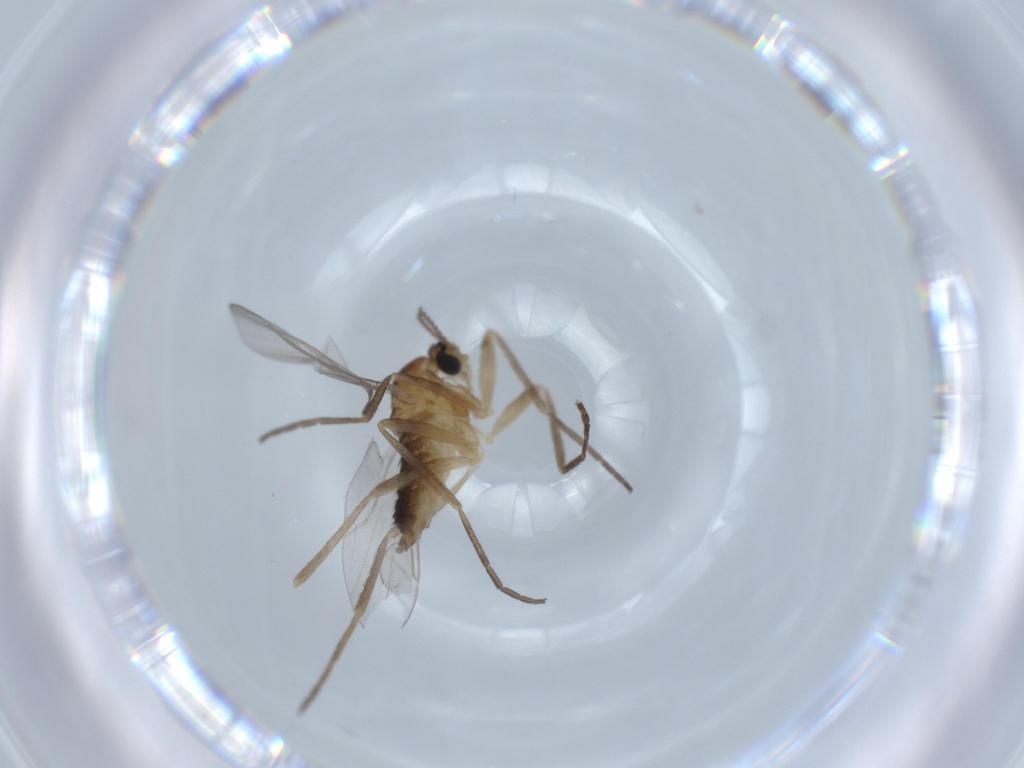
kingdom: Animalia
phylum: Arthropoda
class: Insecta
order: Diptera
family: Cecidomyiidae
